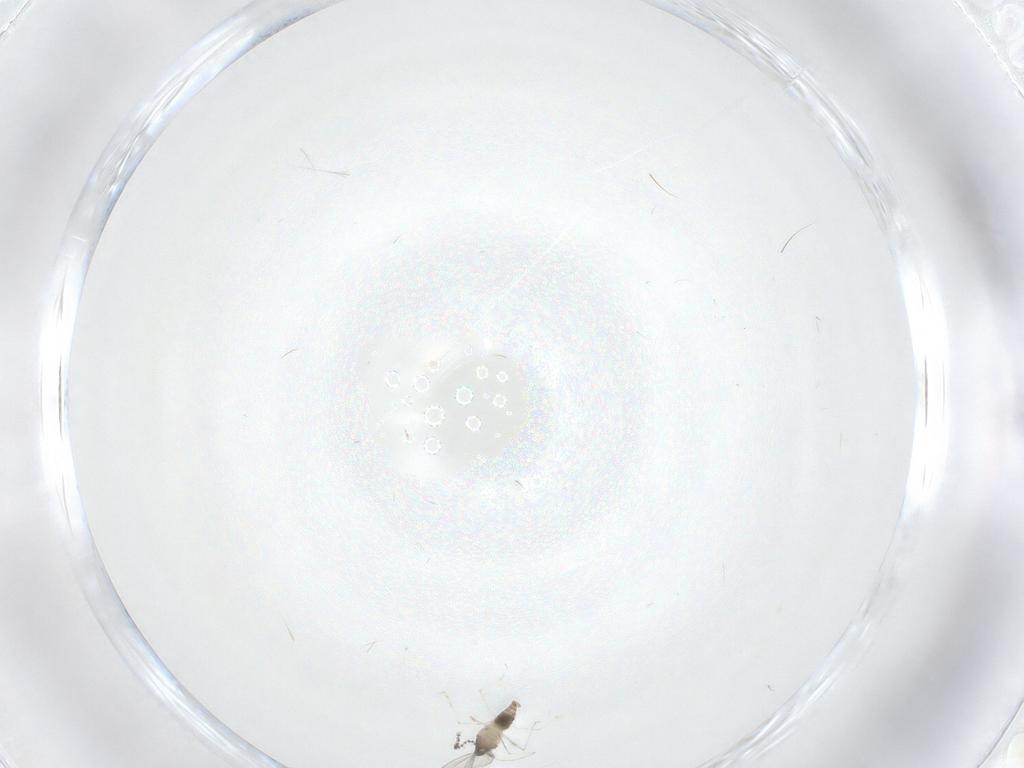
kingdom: Animalia
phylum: Arthropoda
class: Insecta
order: Diptera
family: Cecidomyiidae
